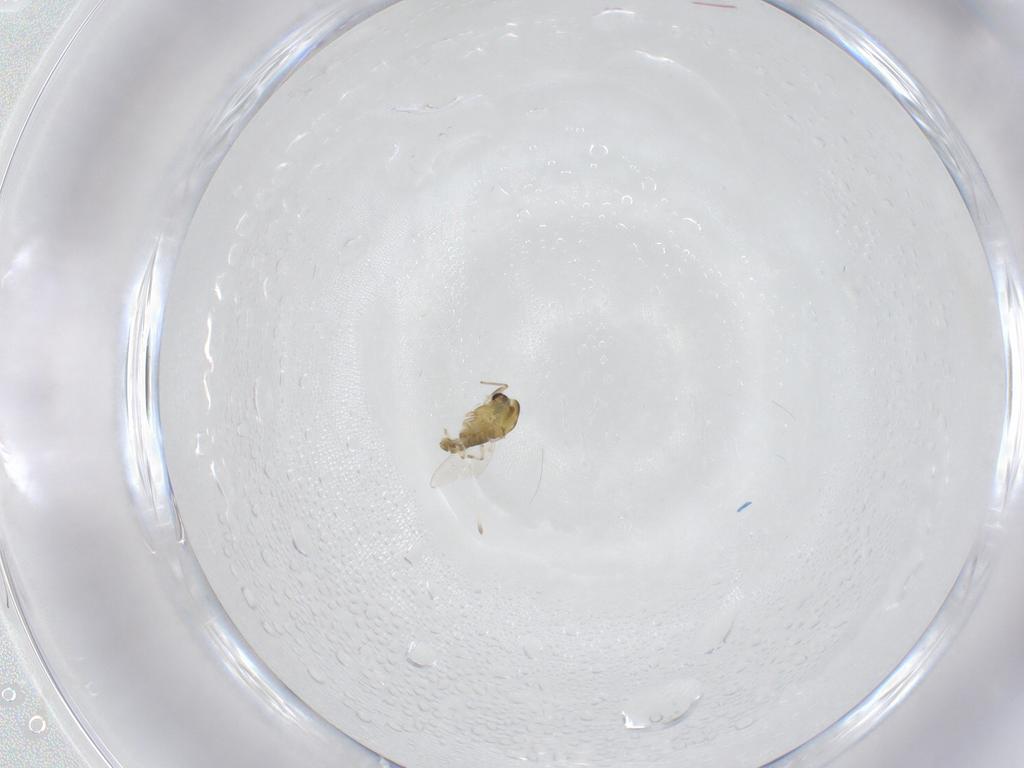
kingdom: Animalia
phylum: Arthropoda
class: Insecta
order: Diptera
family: Chironomidae
